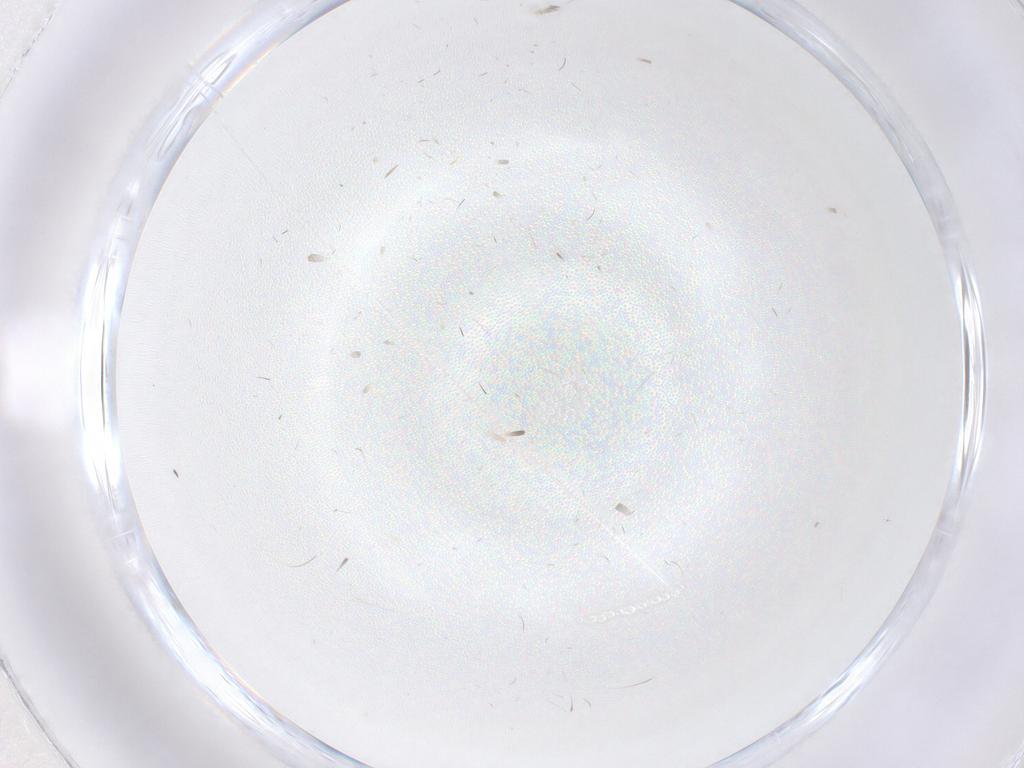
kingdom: Animalia
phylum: Arthropoda
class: Insecta
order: Diptera
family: Cecidomyiidae
